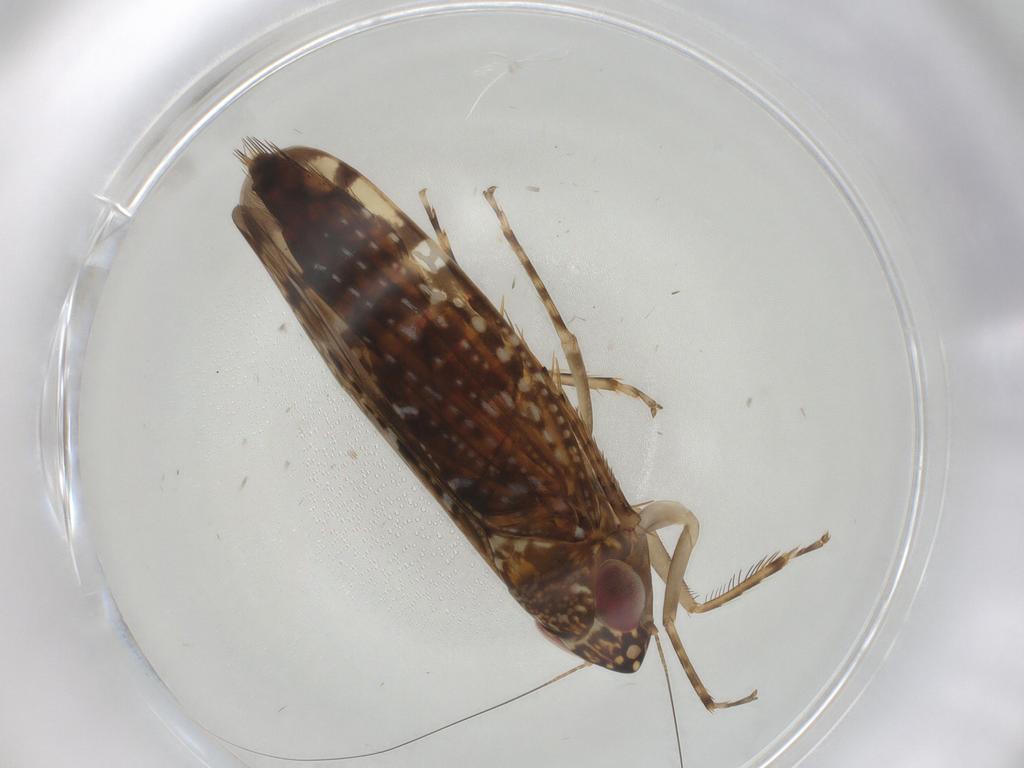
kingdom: Animalia
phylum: Arthropoda
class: Insecta
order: Hemiptera
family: Cicadellidae
